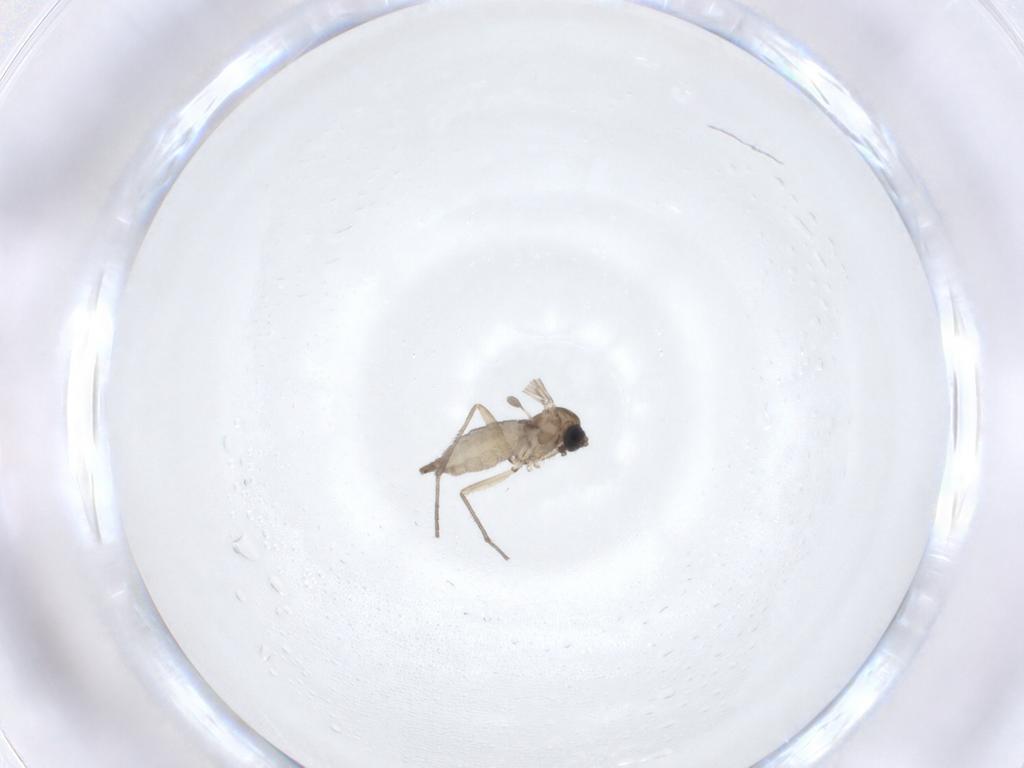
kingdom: Animalia
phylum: Arthropoda
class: Insecta
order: Diptera
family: Sciaridae
